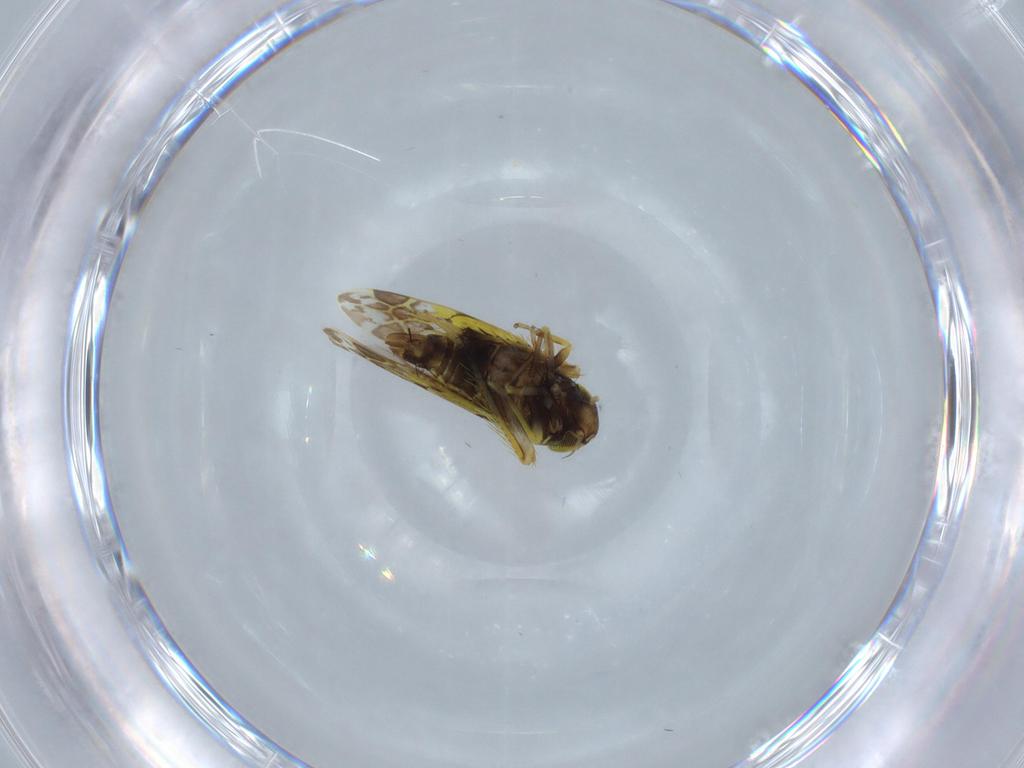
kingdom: Animalia
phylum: Arthropoda
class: Insecta
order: Hemiptera
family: Cicadellidae
